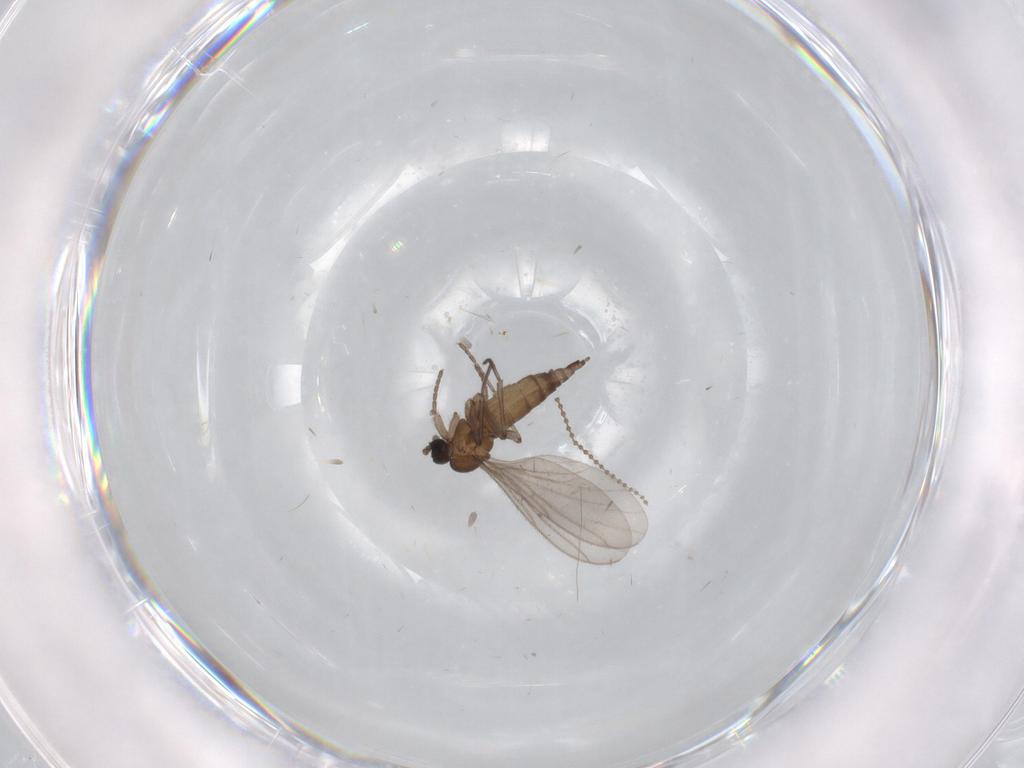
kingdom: Animalia
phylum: Arthropoda
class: Insecta
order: Diptera
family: Sciaridae
